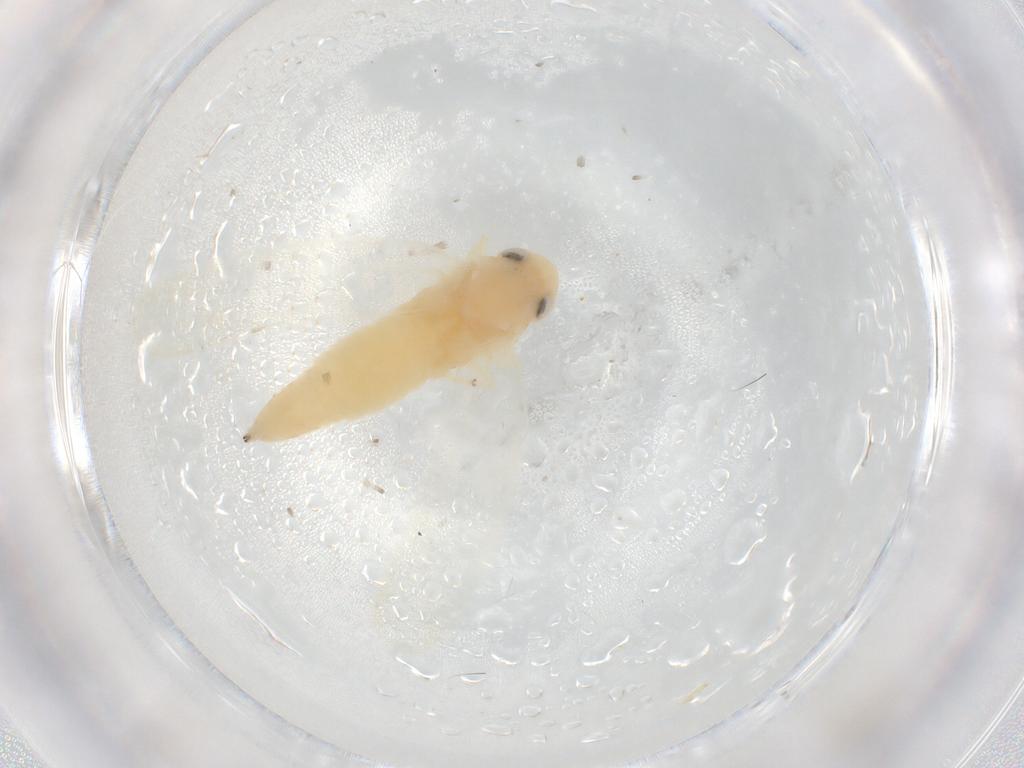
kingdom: Animalia
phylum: Arthropoda
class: Insecta
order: Hemiptera
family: Cicadellidae
